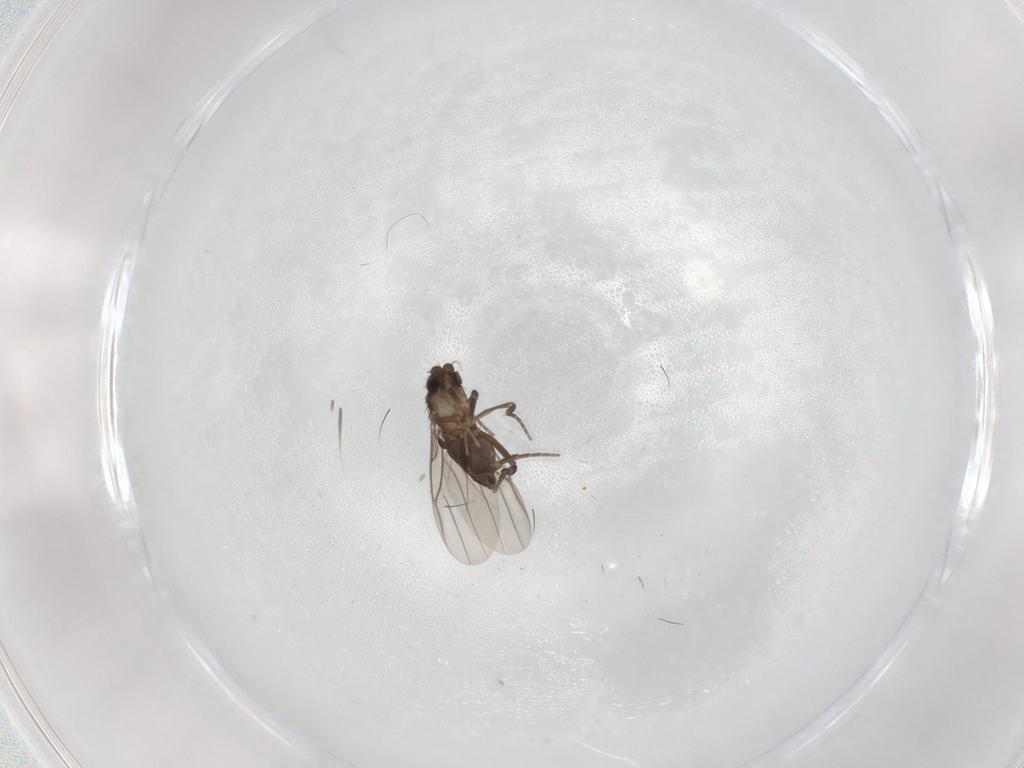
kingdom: Animalia
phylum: Arthropoda
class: Insecta
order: Diptera
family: Phoridae
